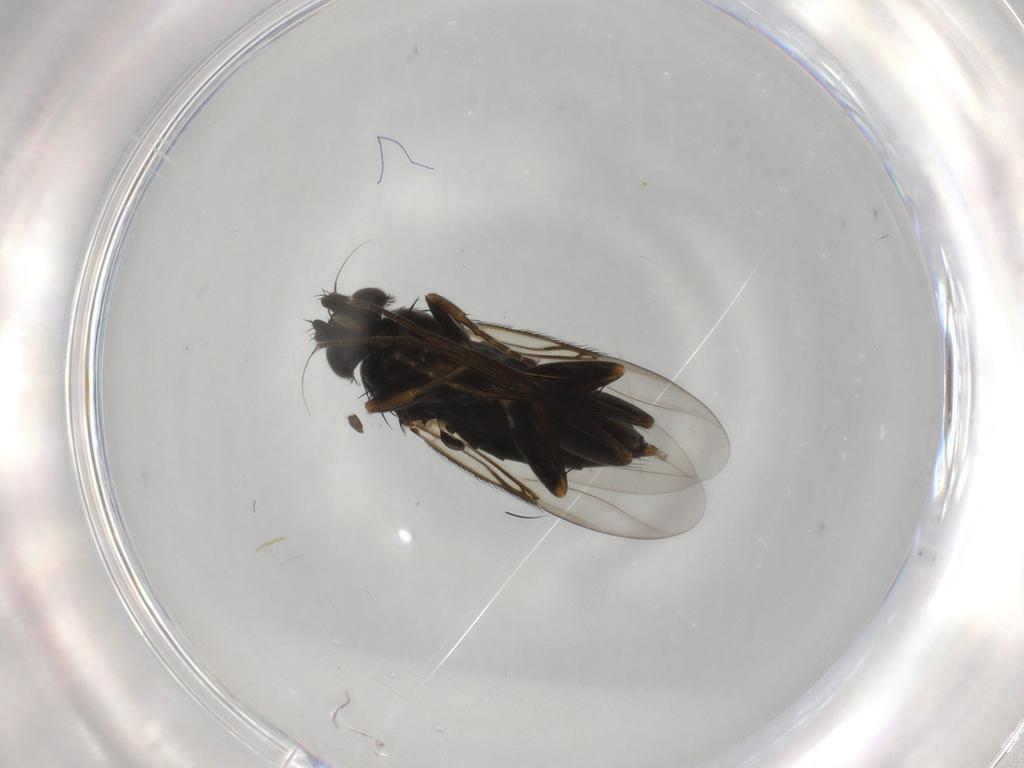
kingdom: Animalia
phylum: Arthropoda
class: Insecta
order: Diptera
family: Phoridae
